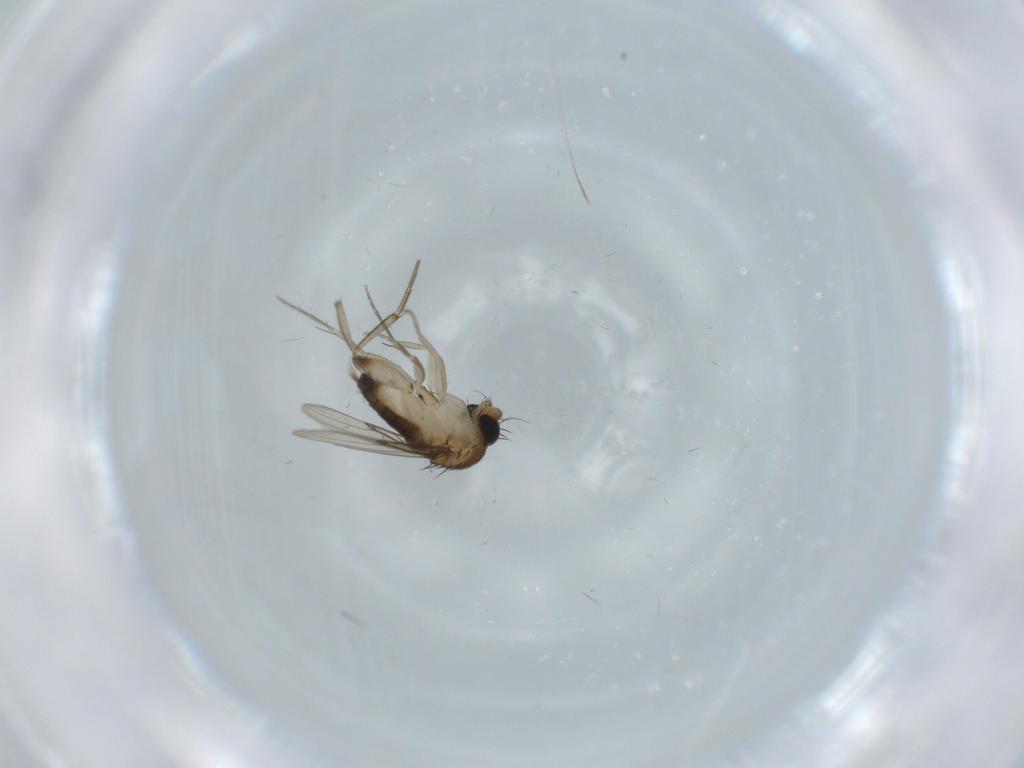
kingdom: Animalia
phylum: Arthropoda
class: Insecta
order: Diptera
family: Phoridae
